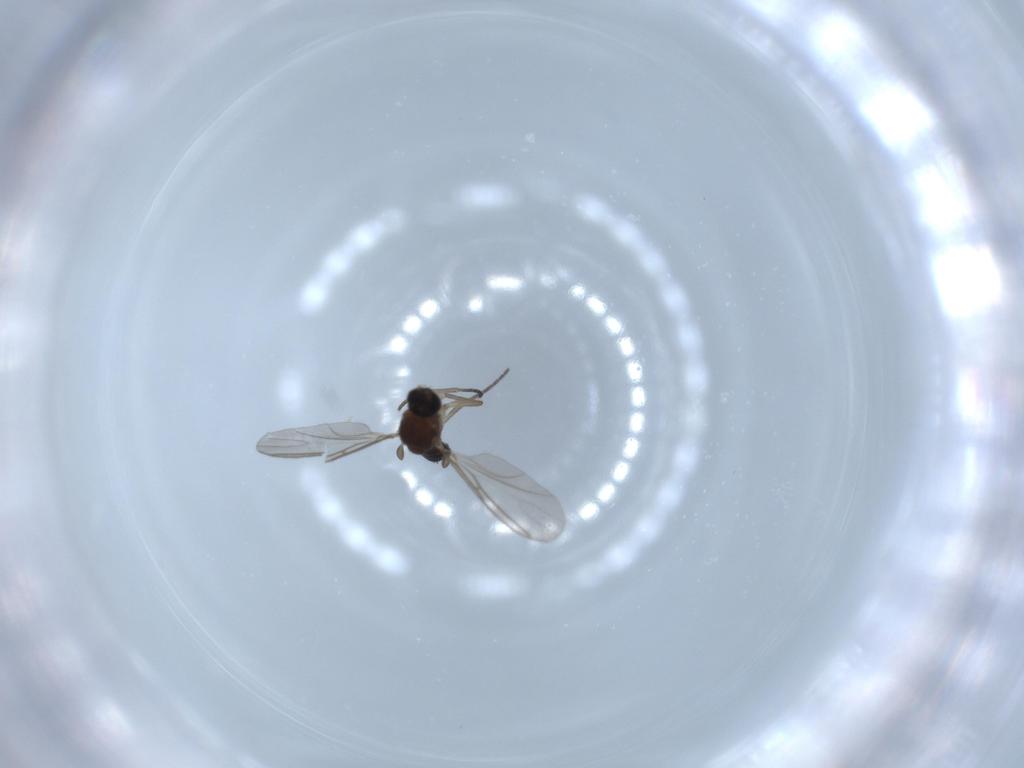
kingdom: Animalia
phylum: Arthropoda
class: Insecta
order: Diptera
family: Sciaridae
